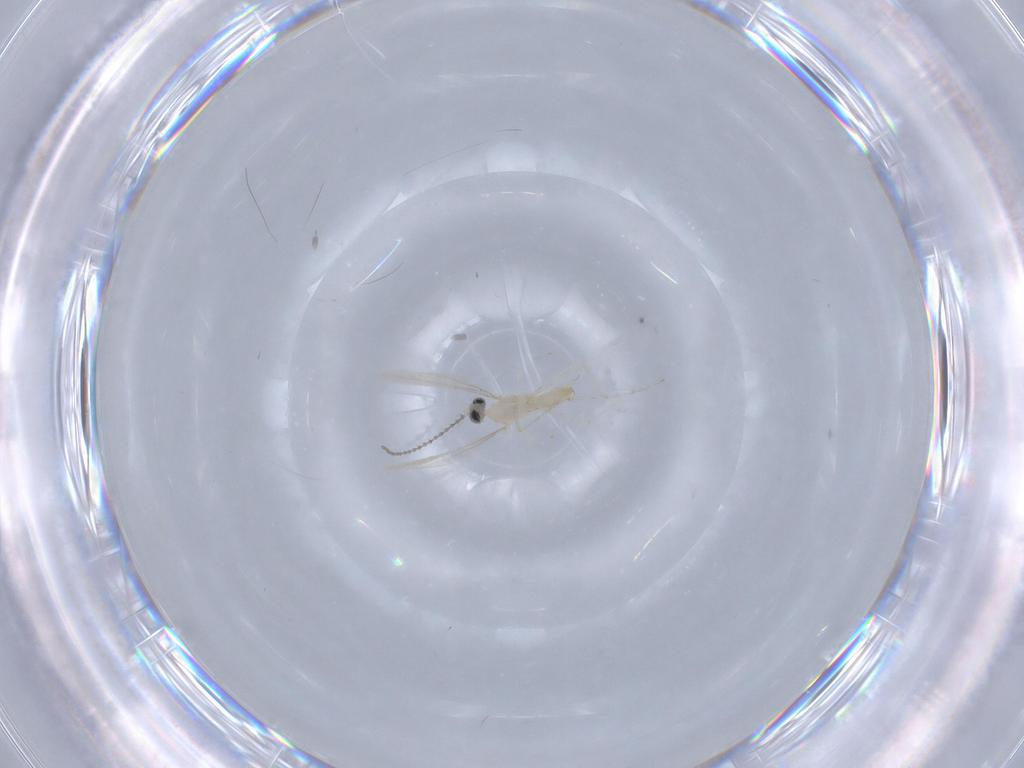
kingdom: Animalia
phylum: Arthropoda
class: Insecta
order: Diptera
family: Cecidomyiidae
